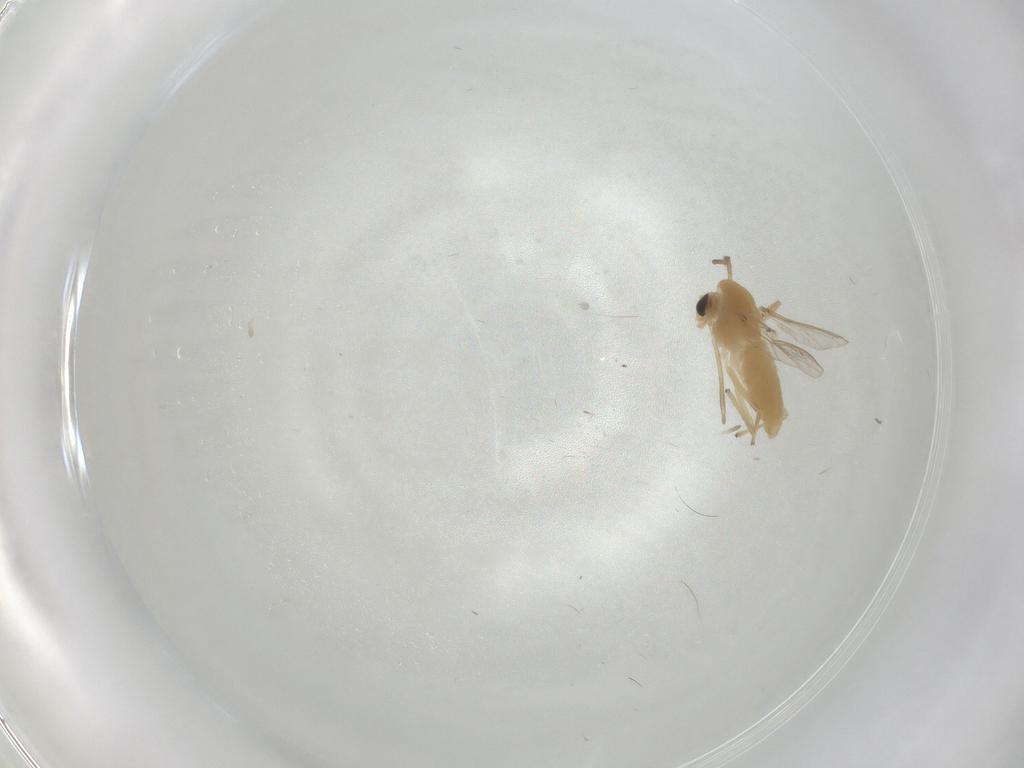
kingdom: Animalia
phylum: Arthropoda
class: Insecta
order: Diptera
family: Chironomidae
